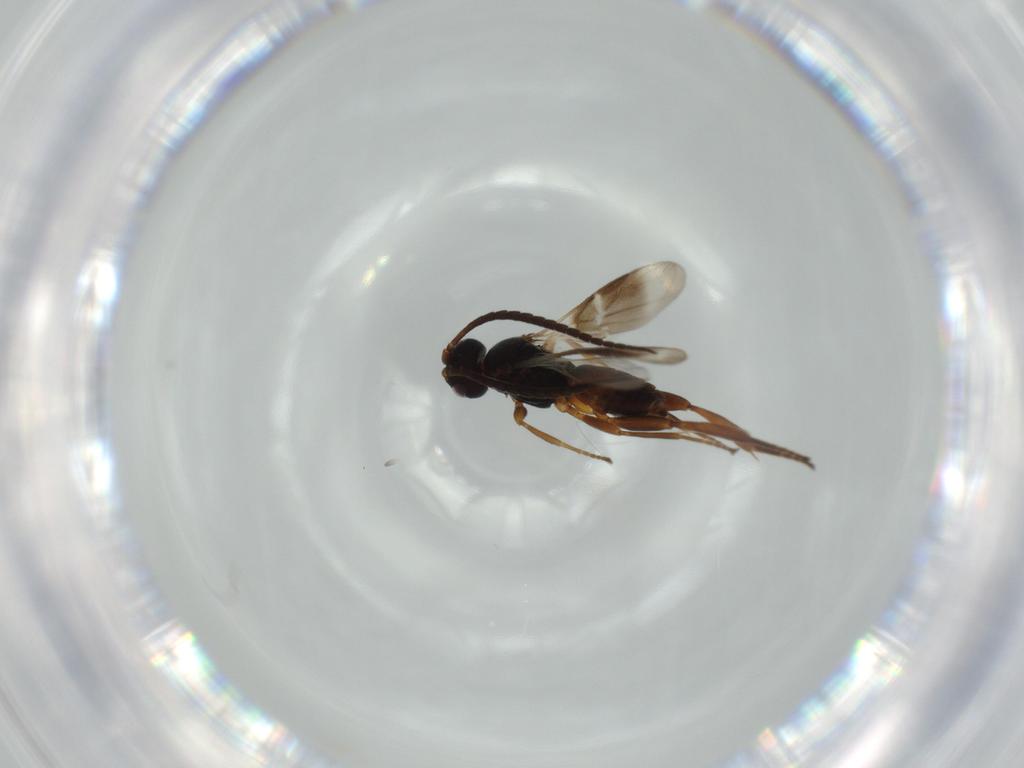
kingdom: Animalia
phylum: Arthropoda
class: Insecta
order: Hymenoptera
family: Braconidae
